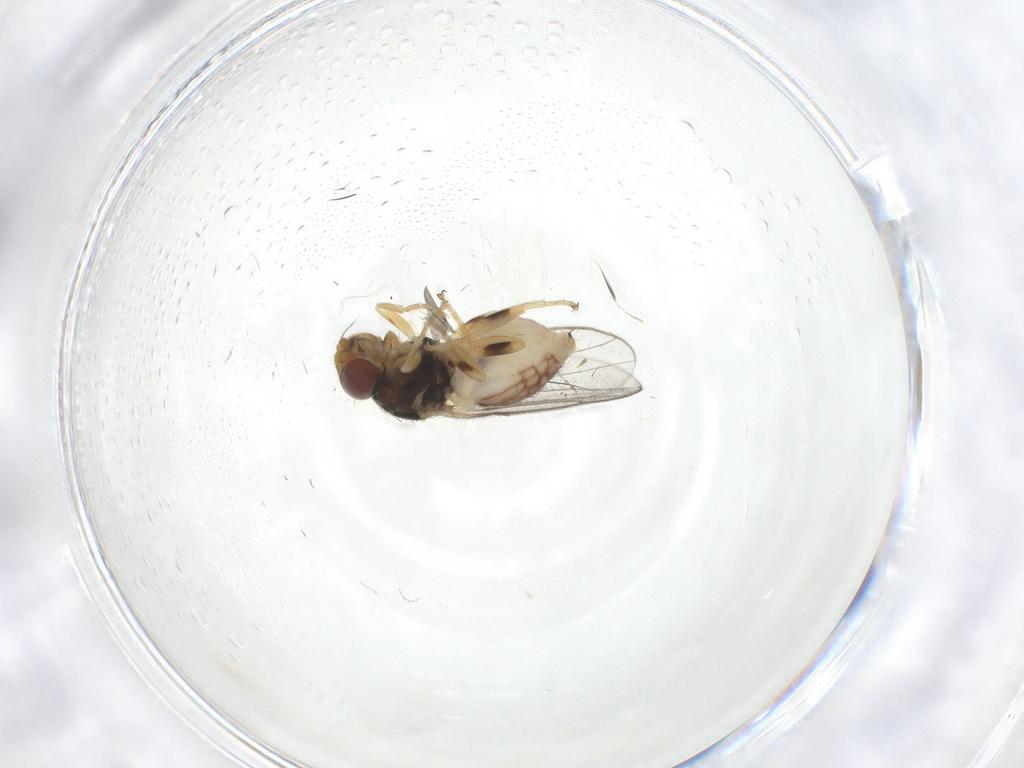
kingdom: Animalia
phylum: Arthropoda
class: Insecta
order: Diptera
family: Chloropidae
